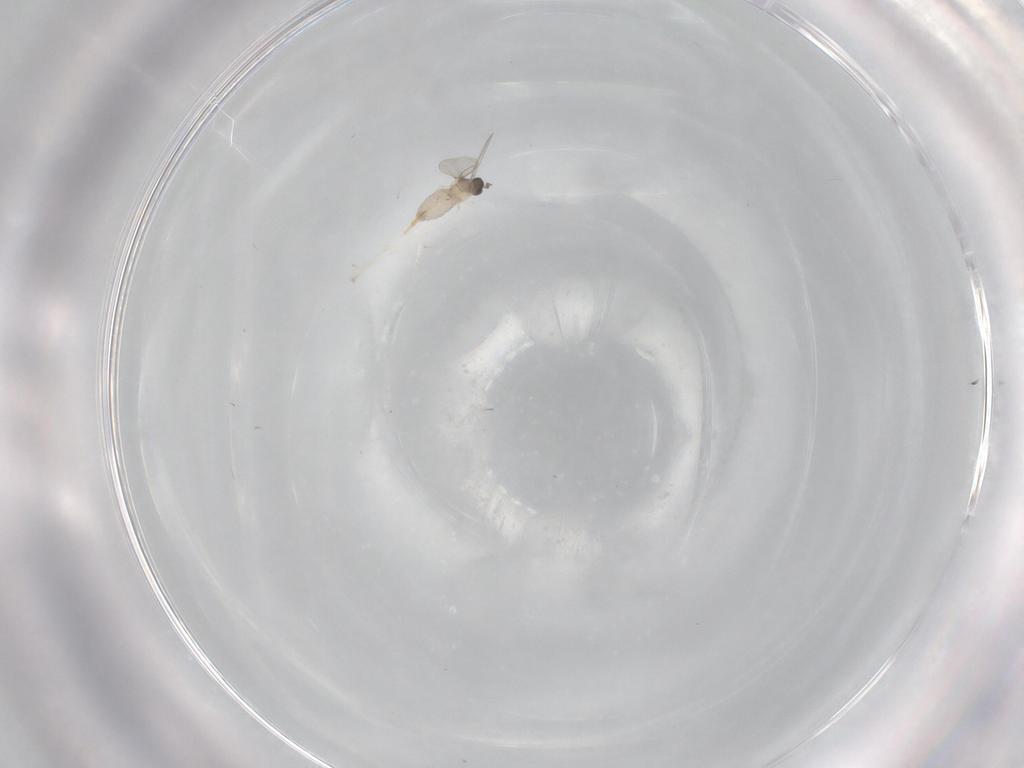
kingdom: Animalia
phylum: Arthropoda
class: Insecta
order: Diptera
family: Cecidomyiidae
